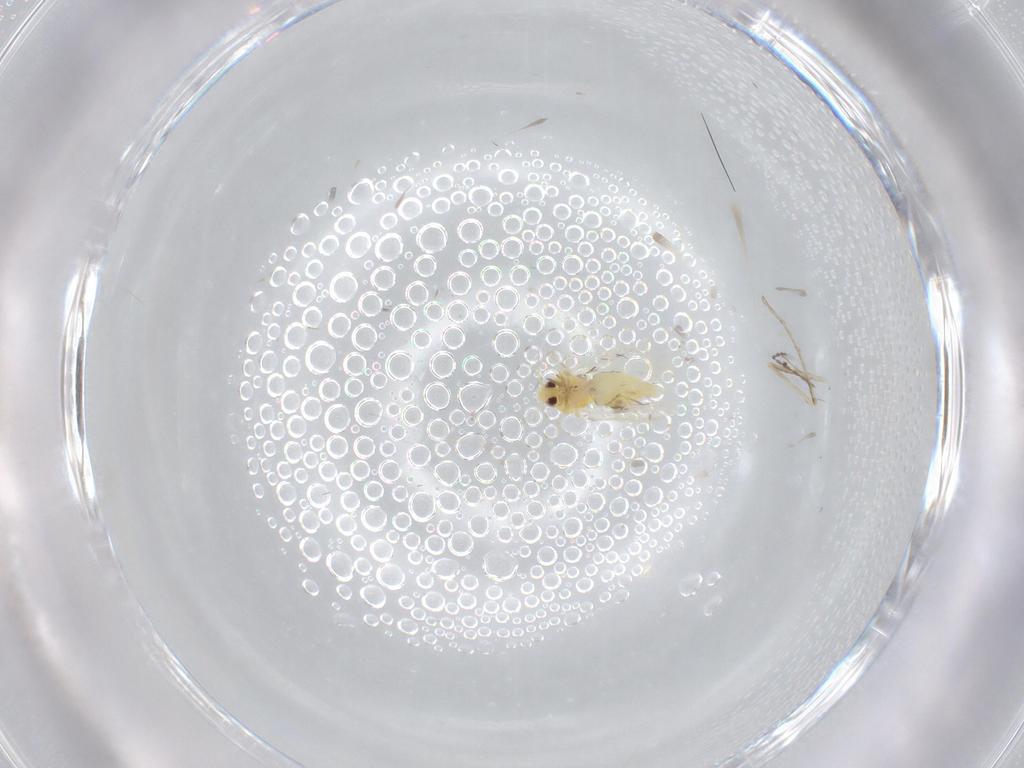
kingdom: Animalia
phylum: Arthropoda
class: Insecta
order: Hemiptera
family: Aleyrodidae
